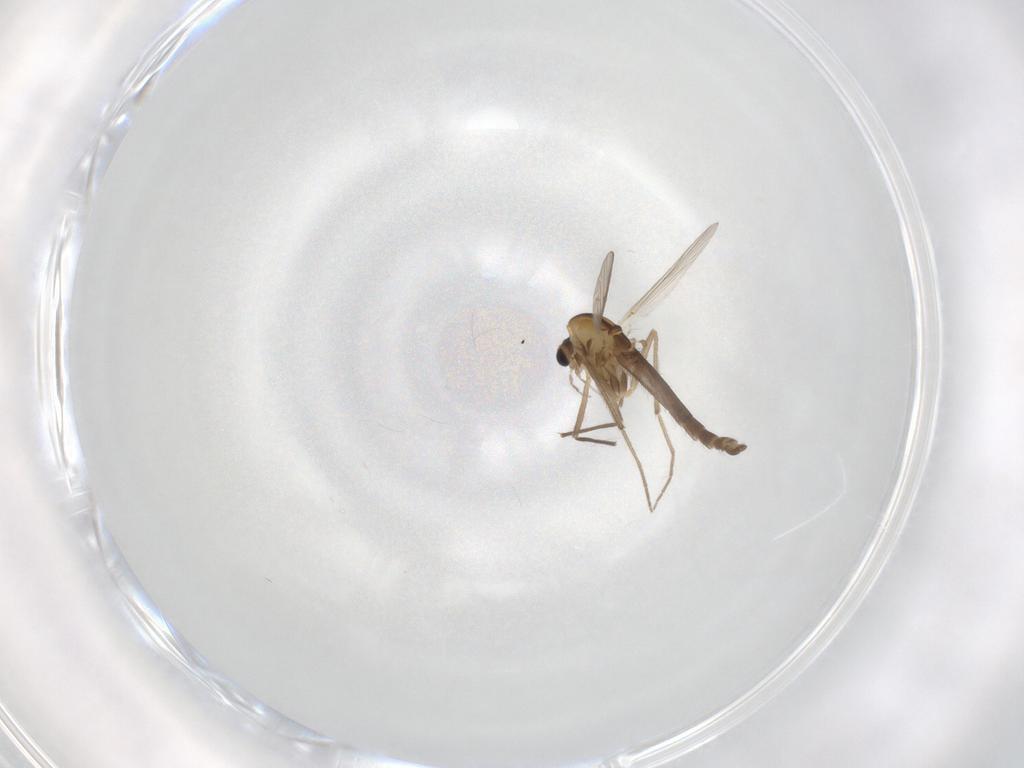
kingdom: Animalia
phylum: Arthropoda
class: Insecta
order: Diptera
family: Chironomidae
